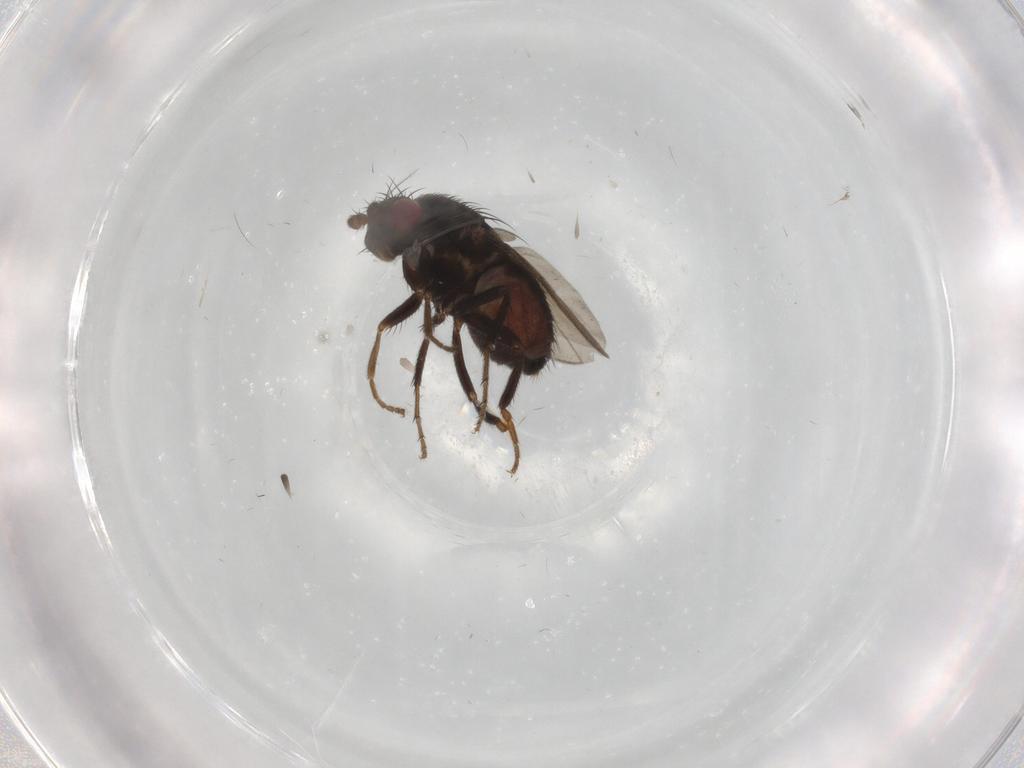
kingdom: Animalia
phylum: Arthropoda
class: Insecta
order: Diptera
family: Sphaeroceridae
